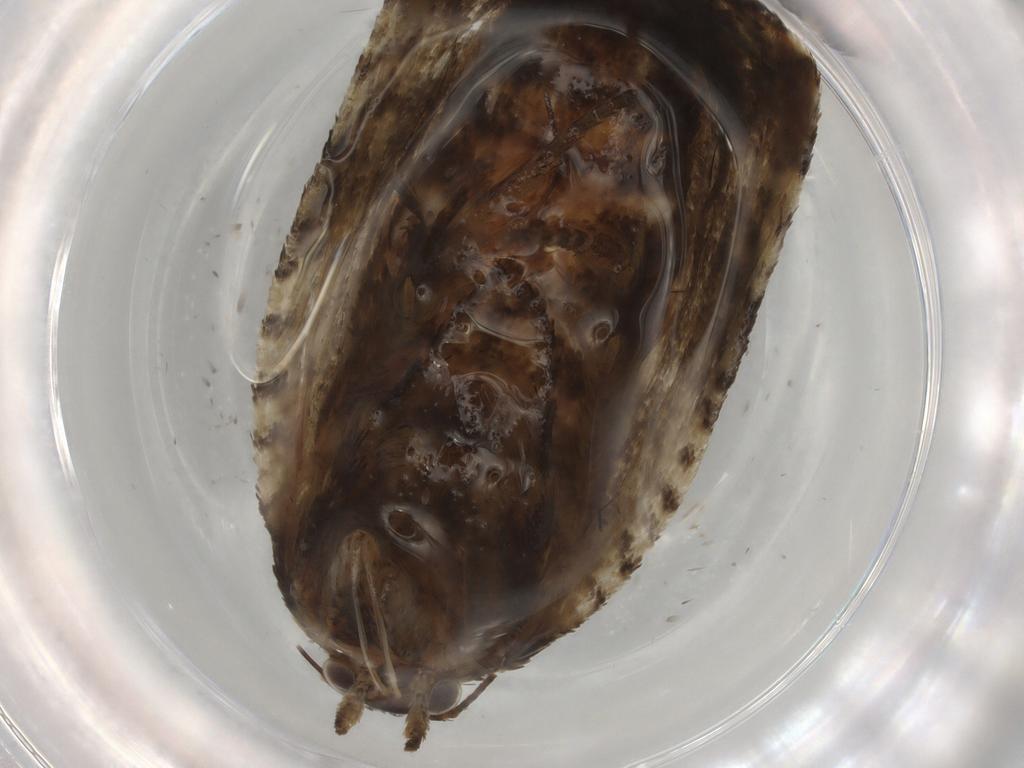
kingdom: Animalia
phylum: Arthropoda
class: Insecta
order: Lepidoptera
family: Nepticulidae
